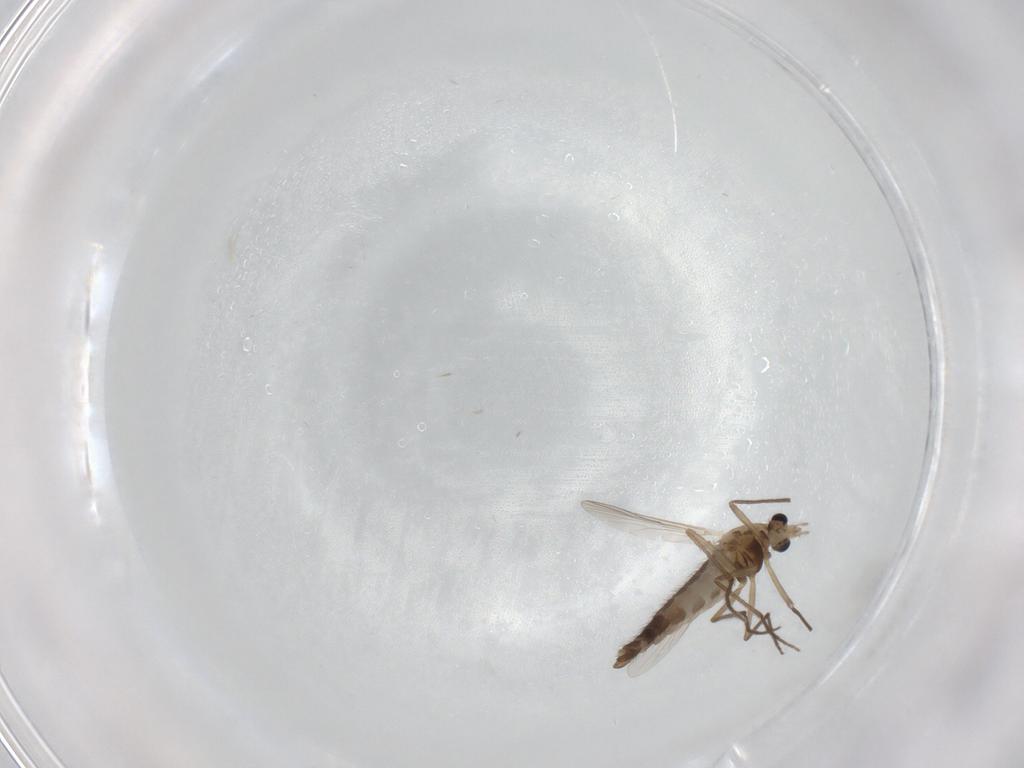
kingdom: Animalia
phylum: Arthropoda
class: Insecta
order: Diptera
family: Chironomidae
